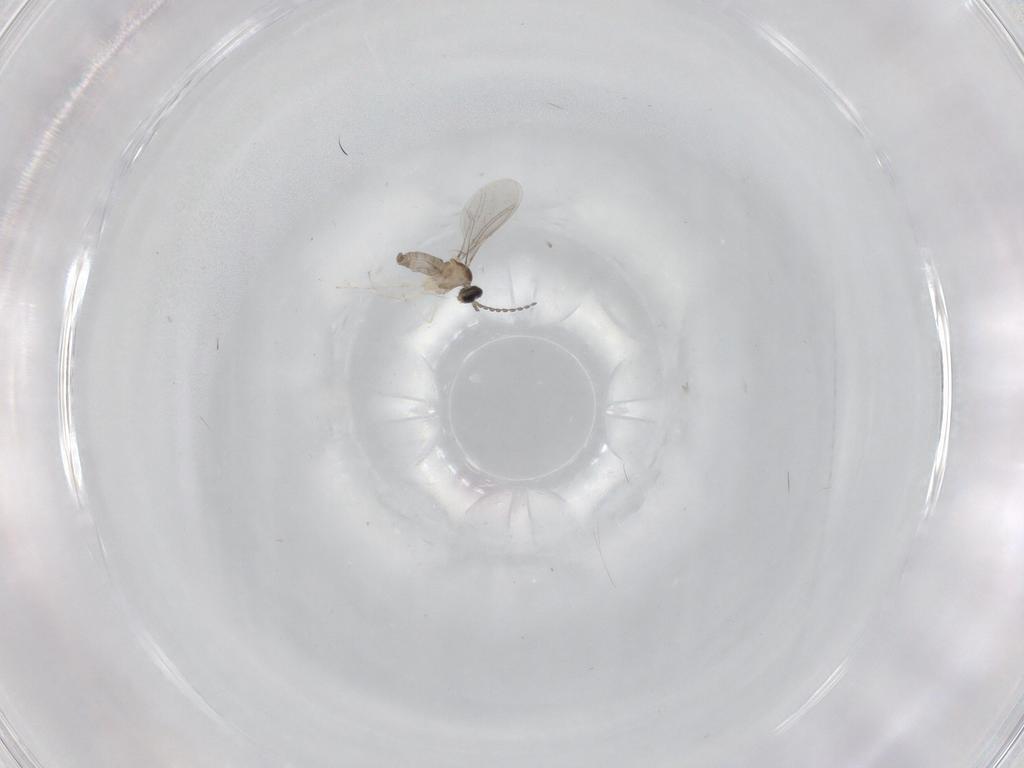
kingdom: Animalia
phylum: Arthropoda
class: Insecta
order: Diptera
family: Cecidomyiidae
